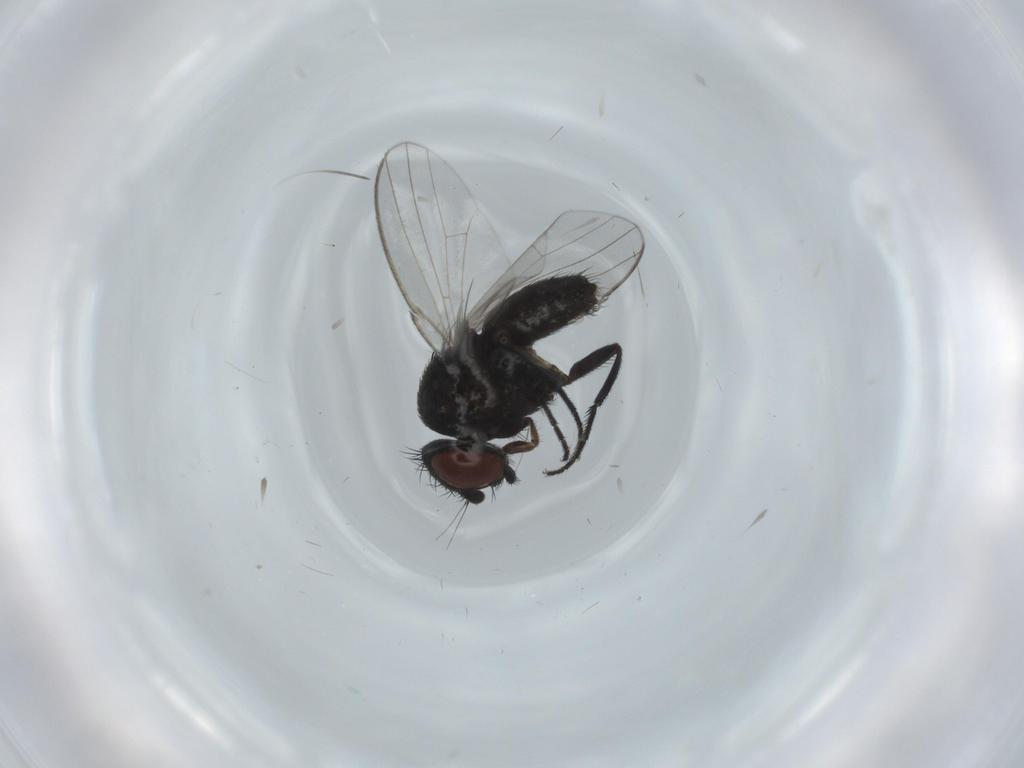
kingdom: Animalia
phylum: Arthropoda
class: Insecta
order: Diptera
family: Milichiidae
